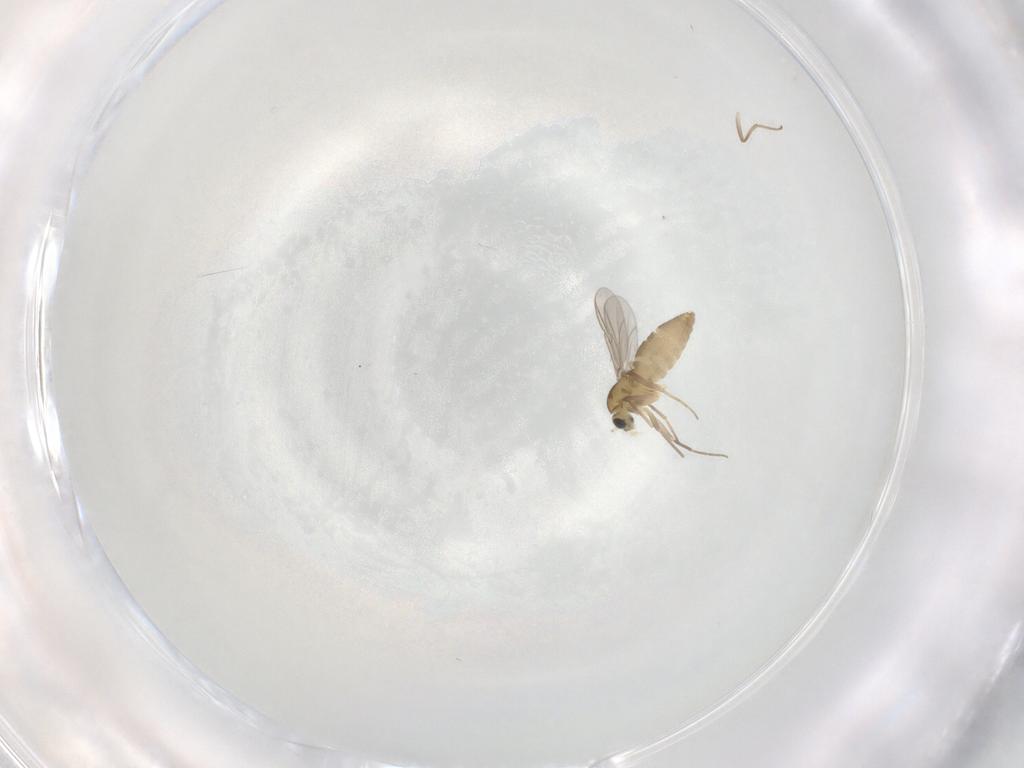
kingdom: Animalia
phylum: Arthropoda
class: Insecta
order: Diptera
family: Chironomidae
